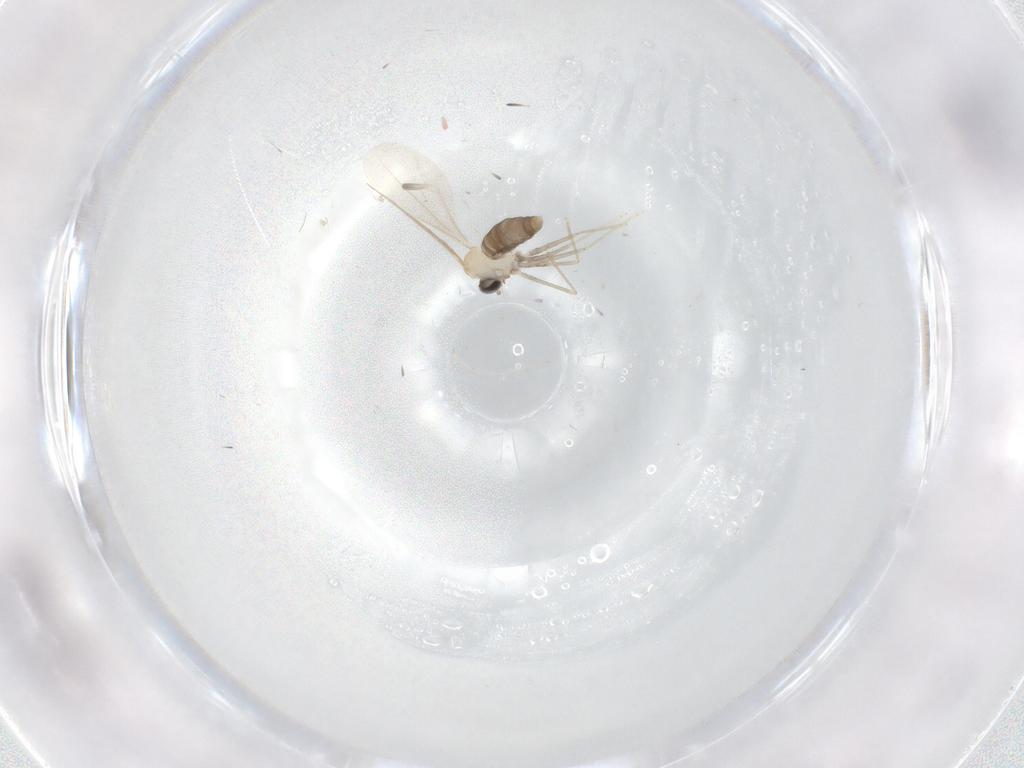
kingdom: Animalia
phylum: Arthropoda
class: Insecta
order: Diptera
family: Cecidomyiidae
